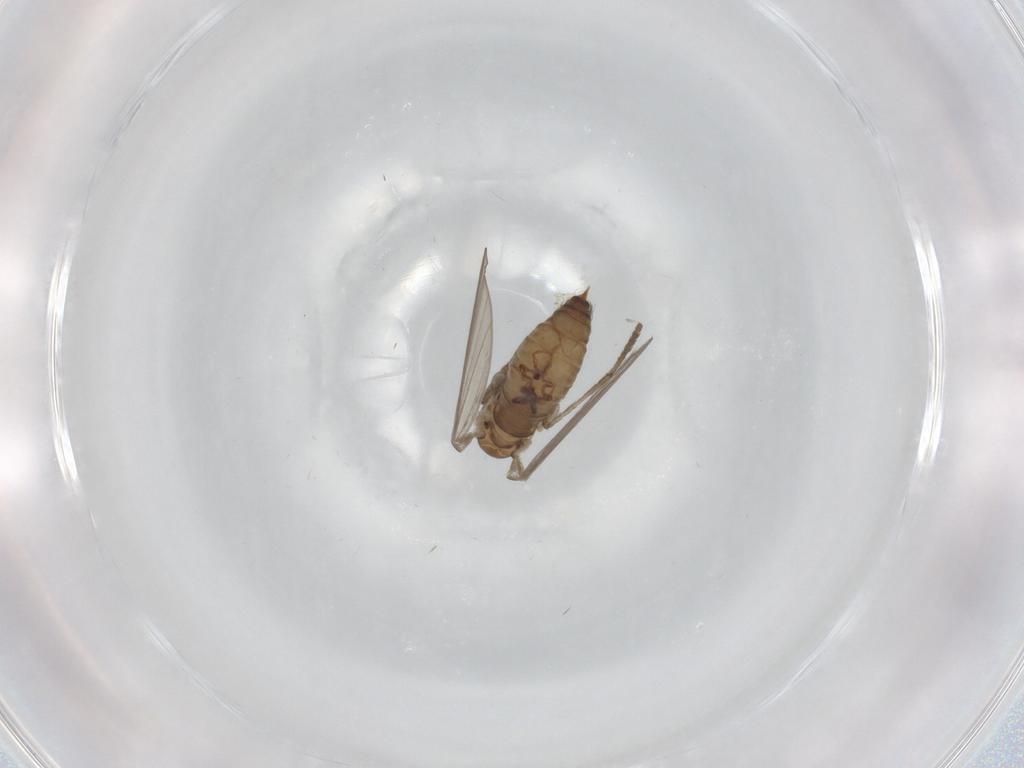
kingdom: Animalia
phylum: Arthropoda
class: Insecta
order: Diptera
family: Psychodidae
